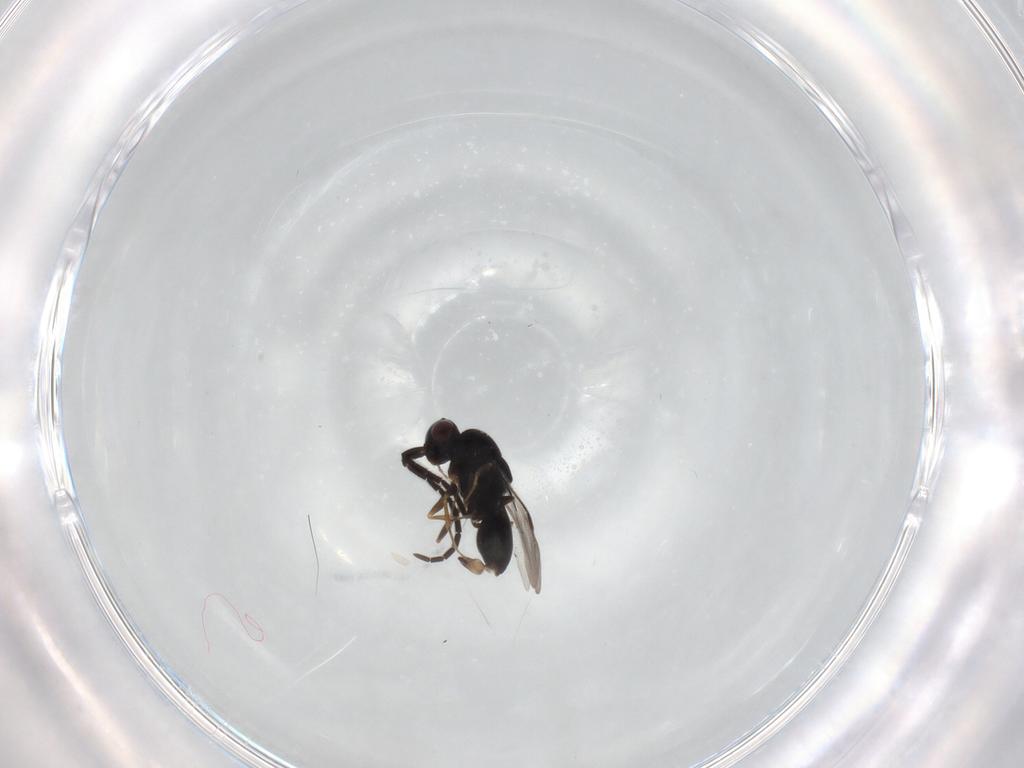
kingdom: Animalia
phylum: Arthropoda
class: Insecta
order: Hymenoptera
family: Megaspilidae
